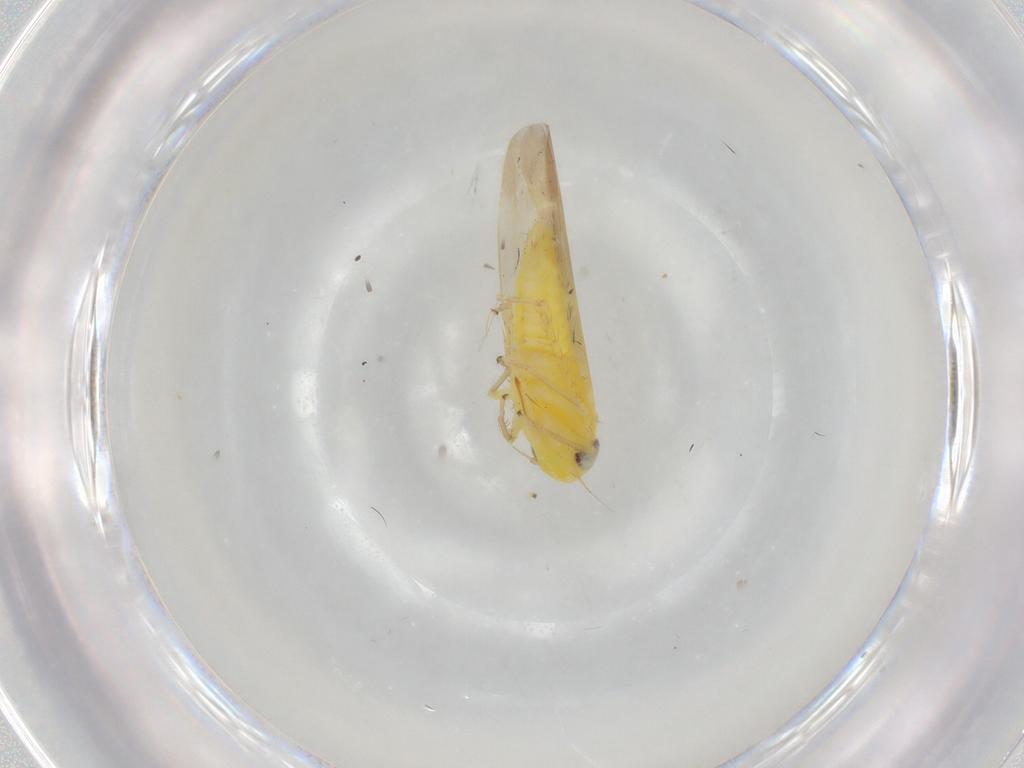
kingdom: Animalia
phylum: Arthropoda
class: Insecta
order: Hemiptera
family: Cicadellidae
